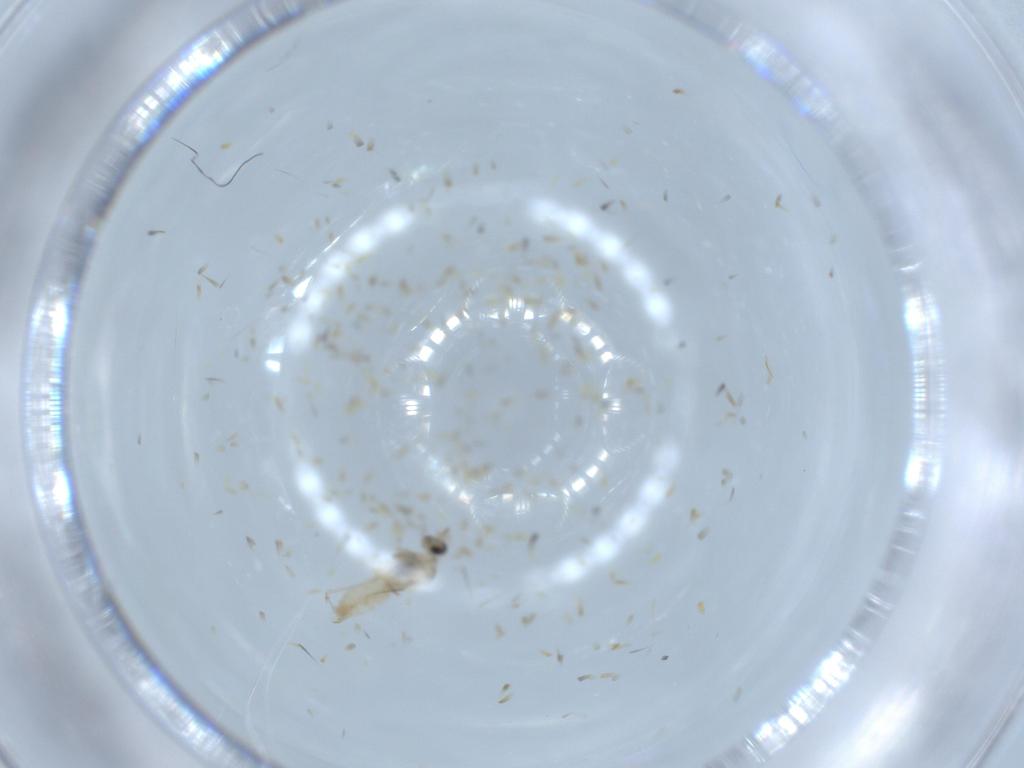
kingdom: Animalia
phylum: Arthropoda
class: Insecta
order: Diptera
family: Cecidomyiidae
